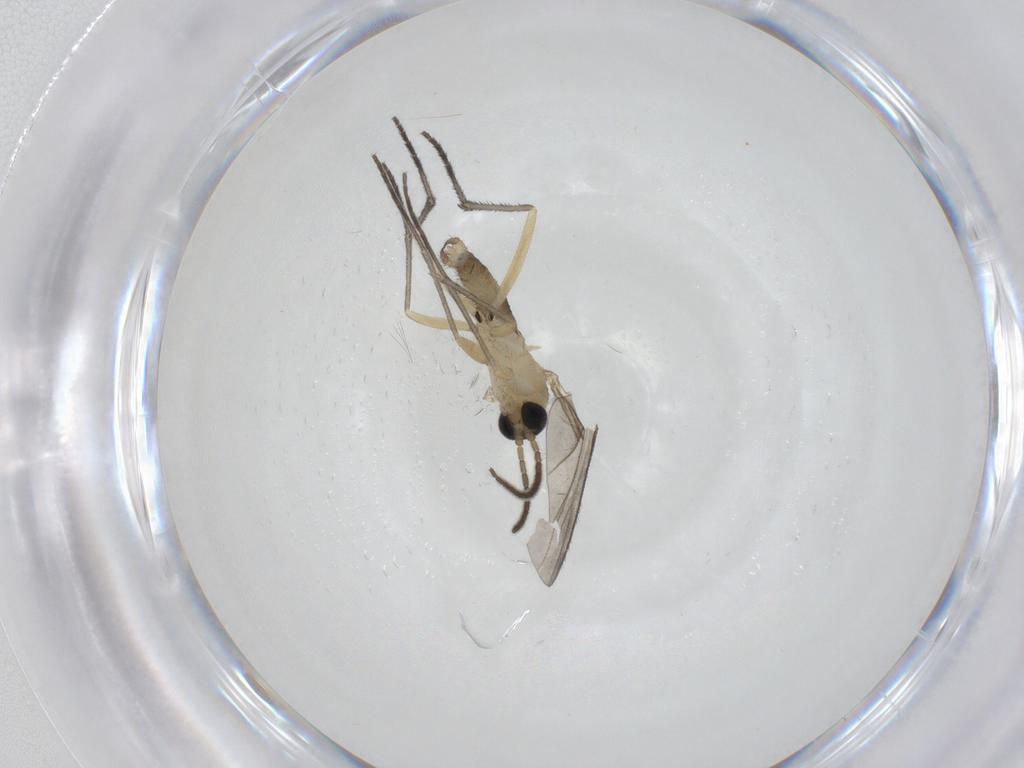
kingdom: Animalia
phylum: Arthropoda
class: Insecta
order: Diptera
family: Sciaridae
